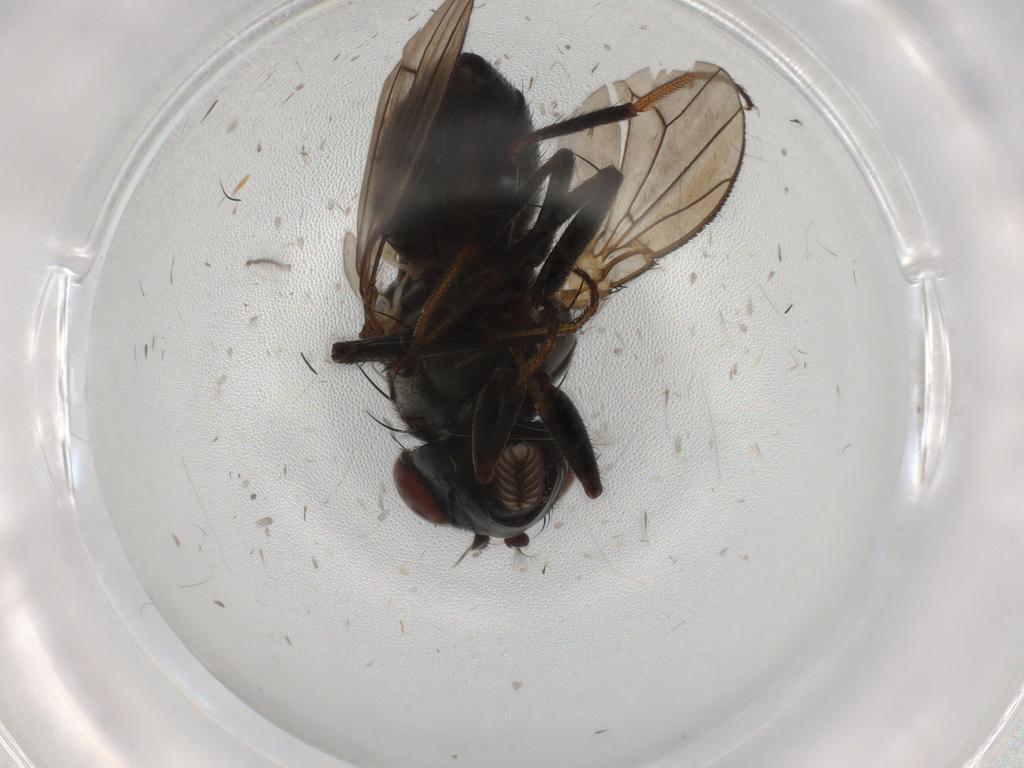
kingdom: Animalia
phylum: Arthropoda
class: Insecta
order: Diptera
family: Ephydridae
